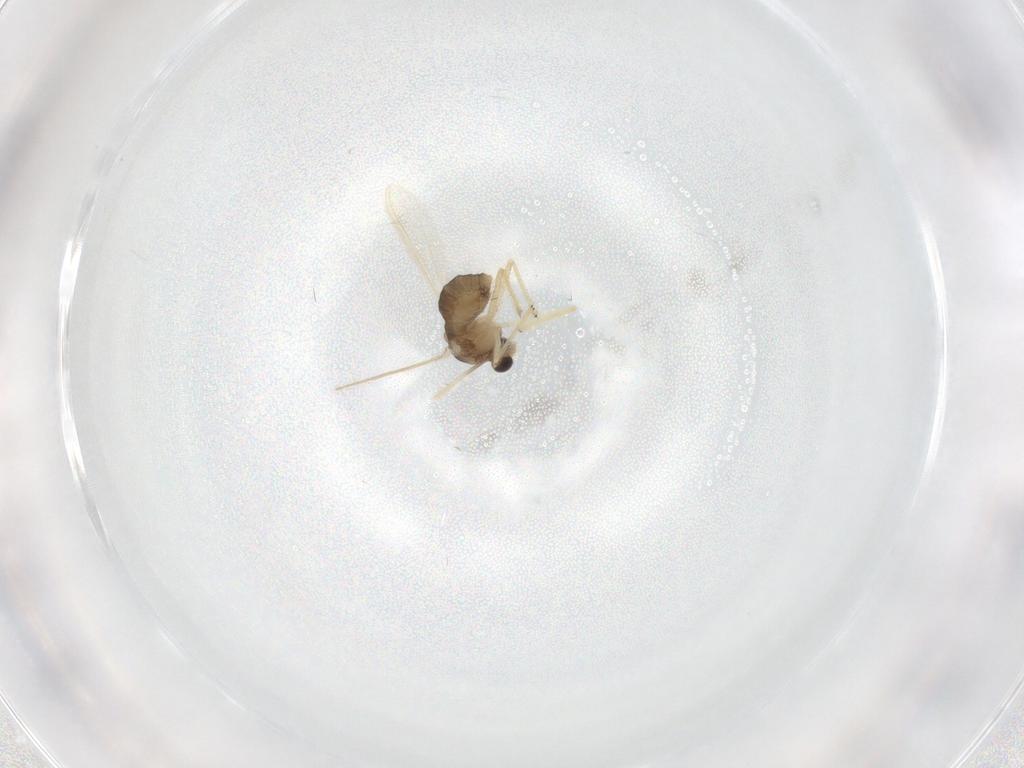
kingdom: Animalia
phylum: Arthropoda
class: Insecta
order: Diptera
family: Chironomidae
